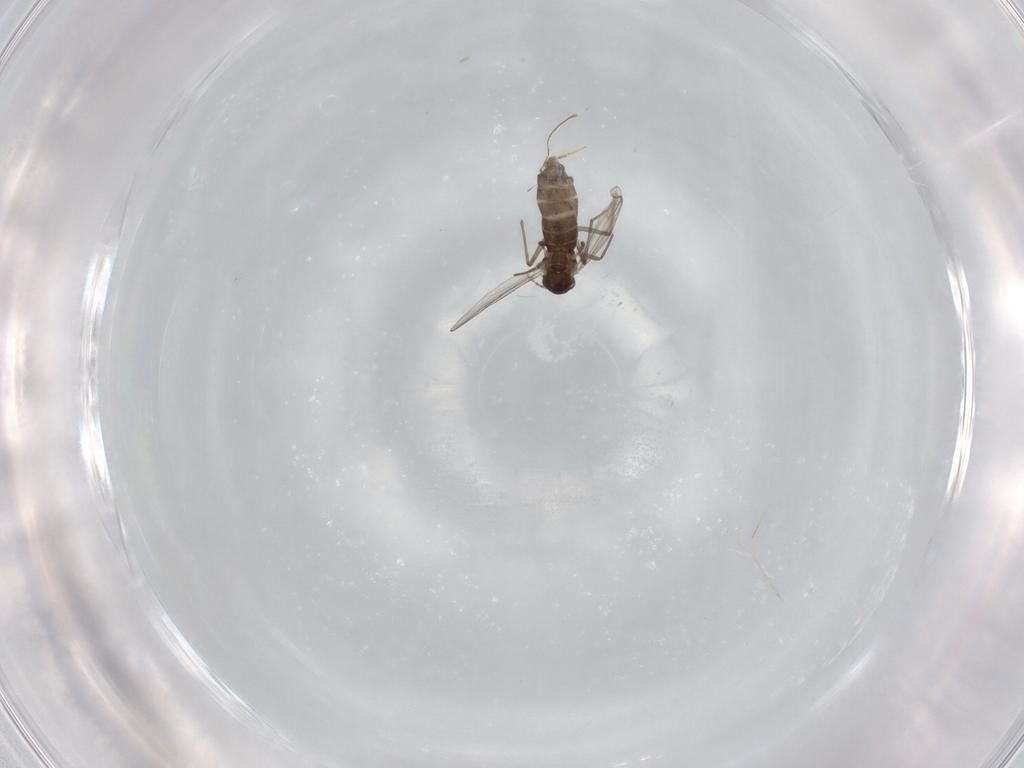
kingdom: Animalia
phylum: Arthropoda
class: Insecta
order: Diptera
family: Chironomidae
